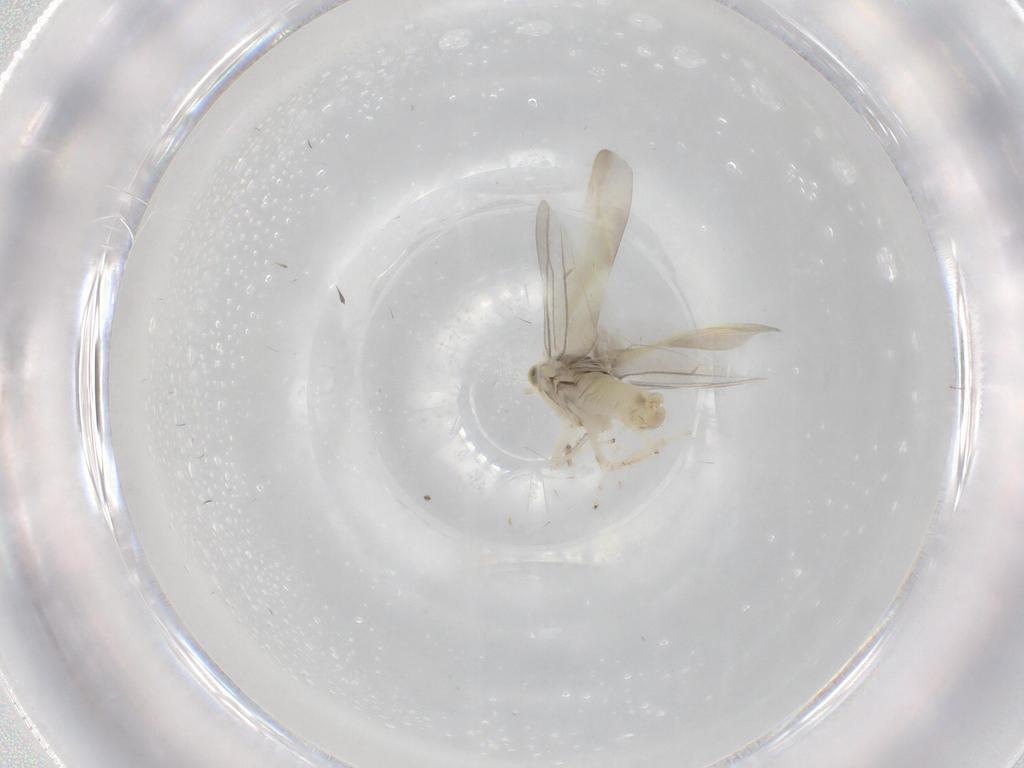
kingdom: Animalia
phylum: Arthropoda
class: Insecta
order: Hemiptera
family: Cicadellidae
